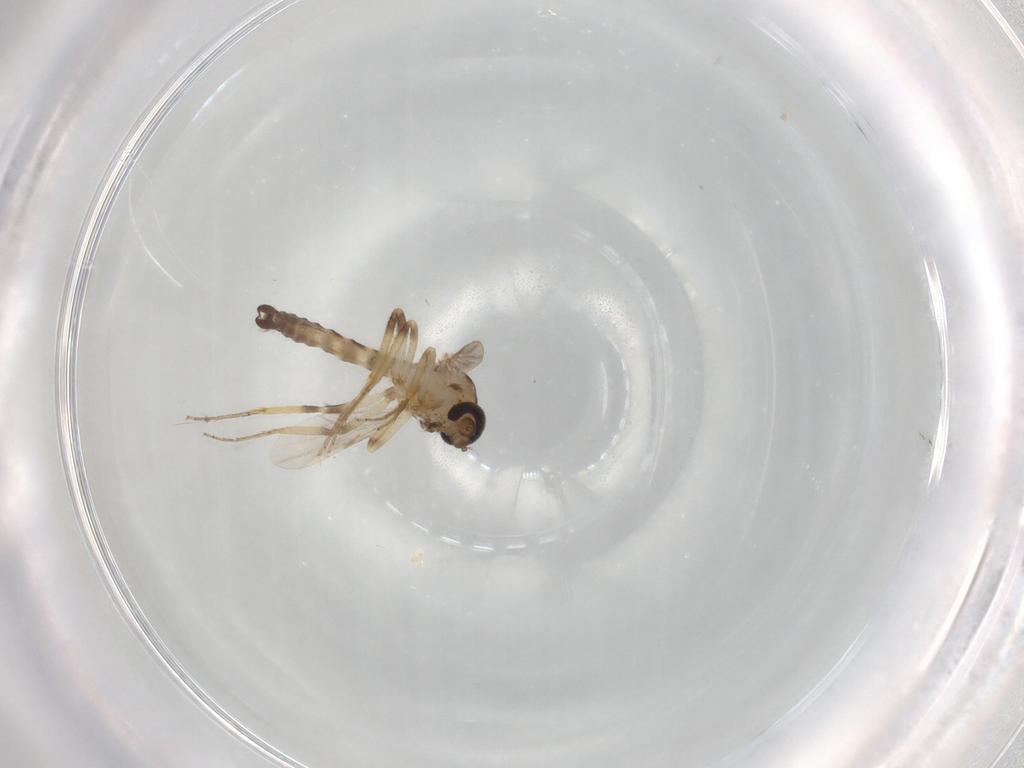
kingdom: Animalia
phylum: Arthropoda
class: Insecta
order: Diptera
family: Ceratopogonidae
